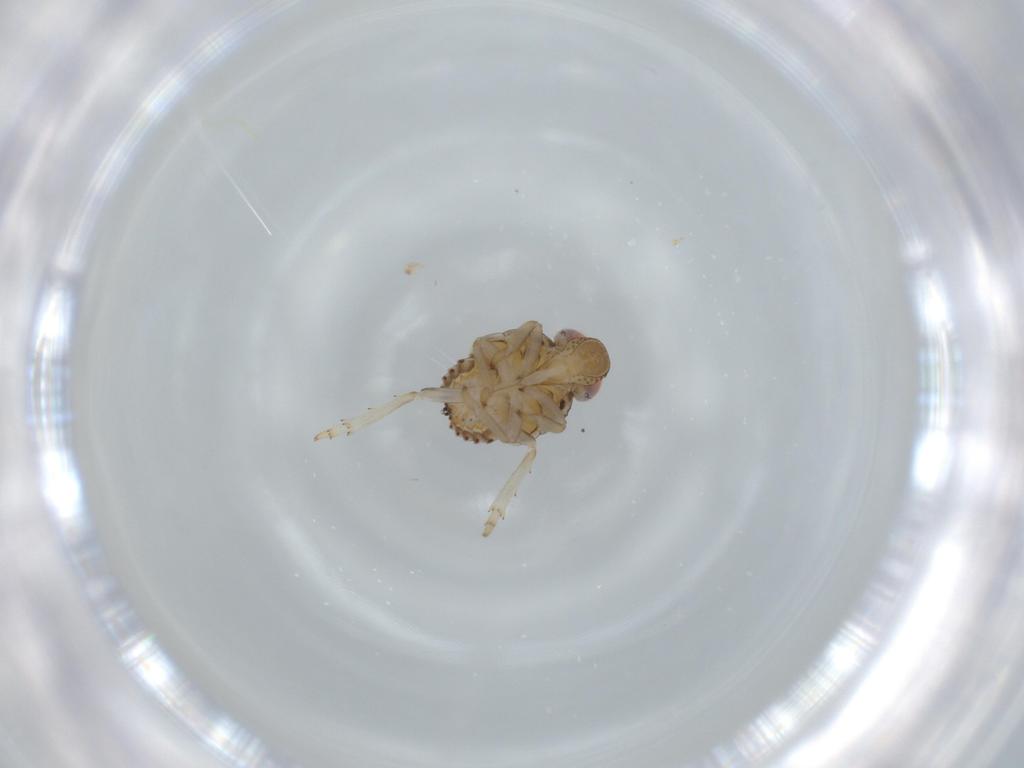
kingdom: Animalia
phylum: Arthropoda
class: Insecta
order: Hemiptera
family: Issidae
